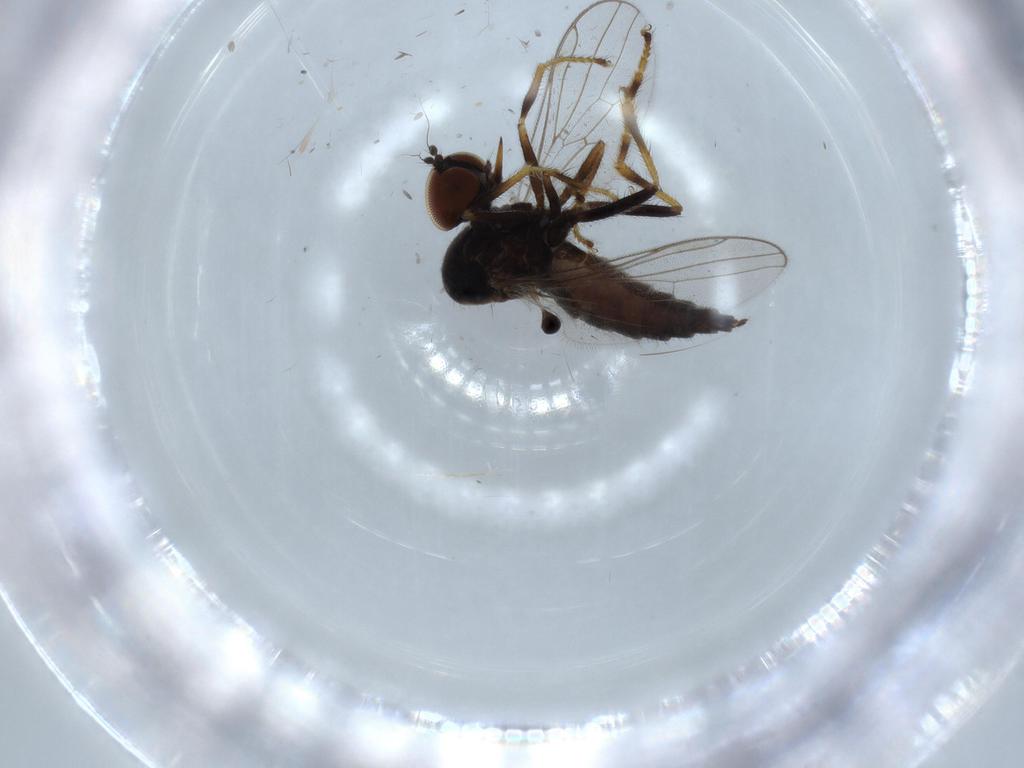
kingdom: Animalia
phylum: Arthropoda
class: Insecta
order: Diptera
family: Hybotidae
